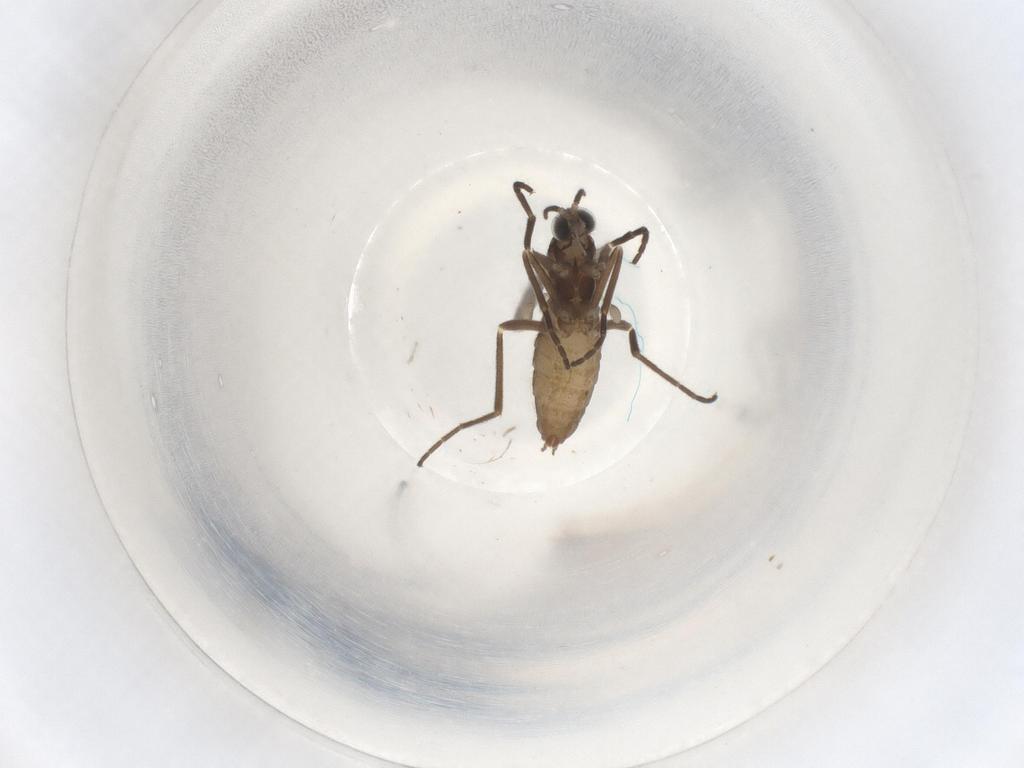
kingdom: Animalia
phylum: Arthropoda
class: Insecta
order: Diptera
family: Cecidomyiidae
